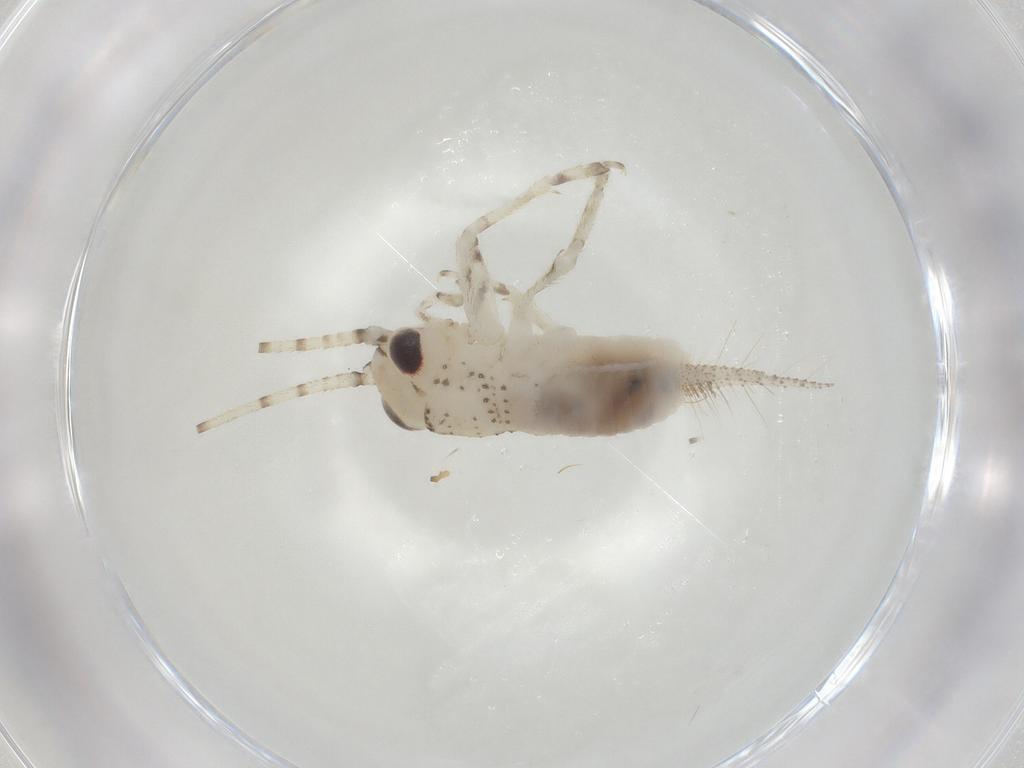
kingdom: Animalia
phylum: Arthropoda
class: Insecta
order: Orthoptera
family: Trigonidiidae
